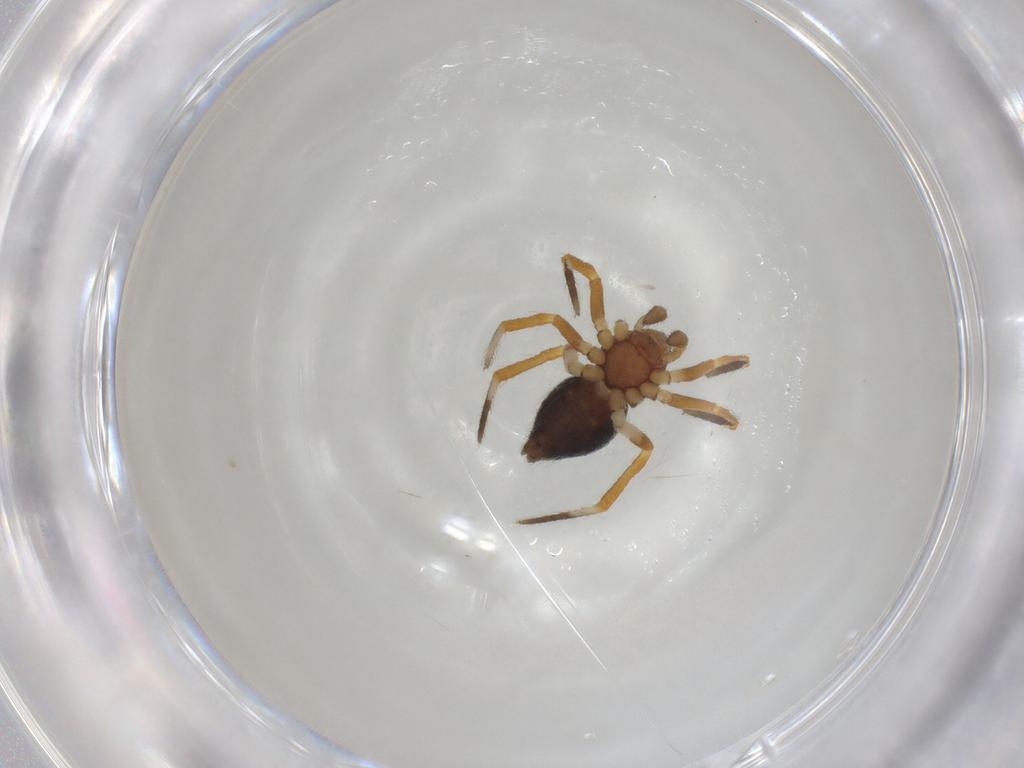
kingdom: Animalia
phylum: Arthropoda
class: Arachnida
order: Araneae
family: Theridiidae
